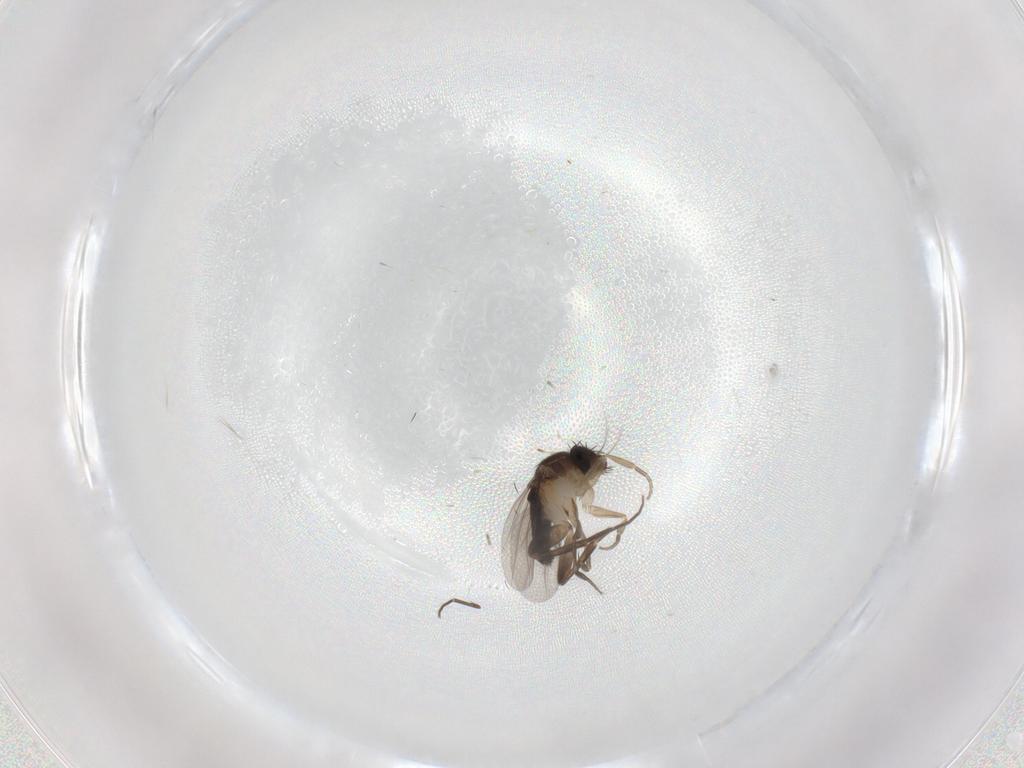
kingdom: Animalia
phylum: Arthropoda
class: Insecta
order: Diptera
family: Phoridae
